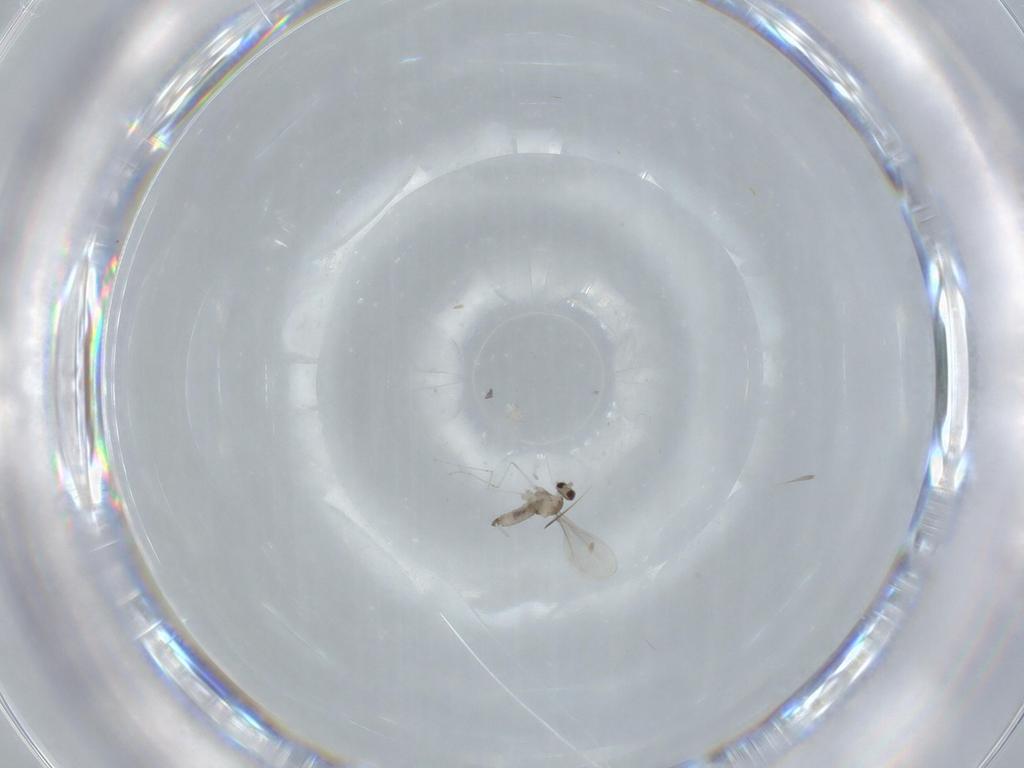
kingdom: Animalia
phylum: Arthropoda
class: Insecta
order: Diptera
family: Cecidomyiidae
